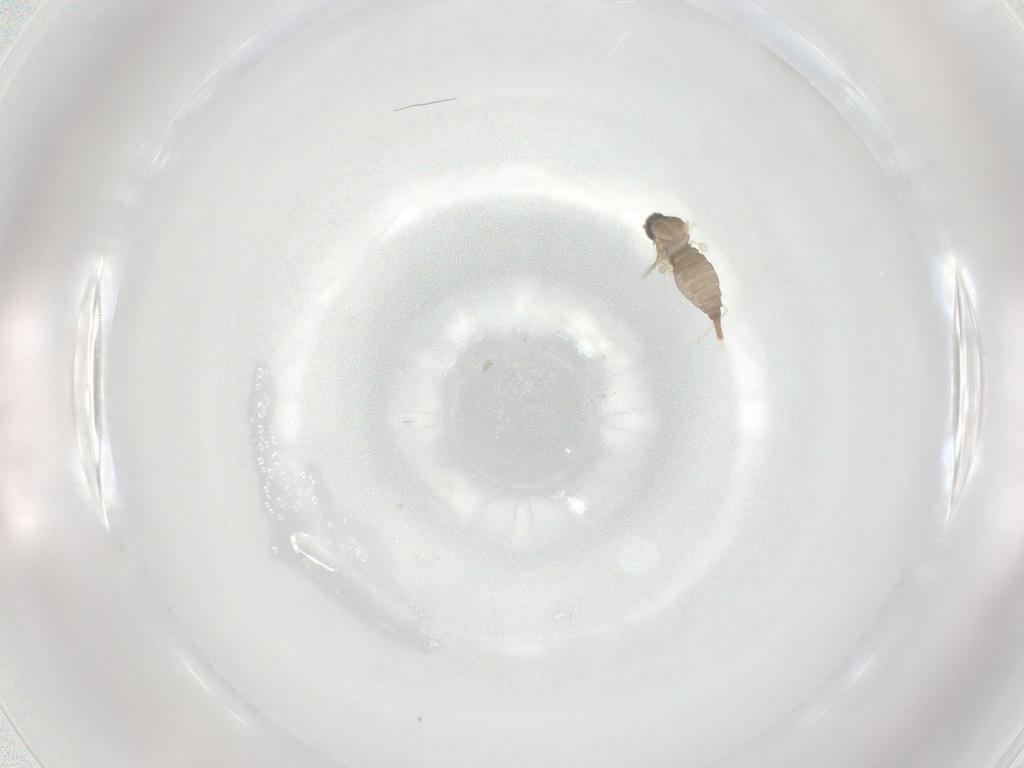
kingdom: Animalia
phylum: Arthropoda
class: Insecta
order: Diptera
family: Cecidomyiidae
